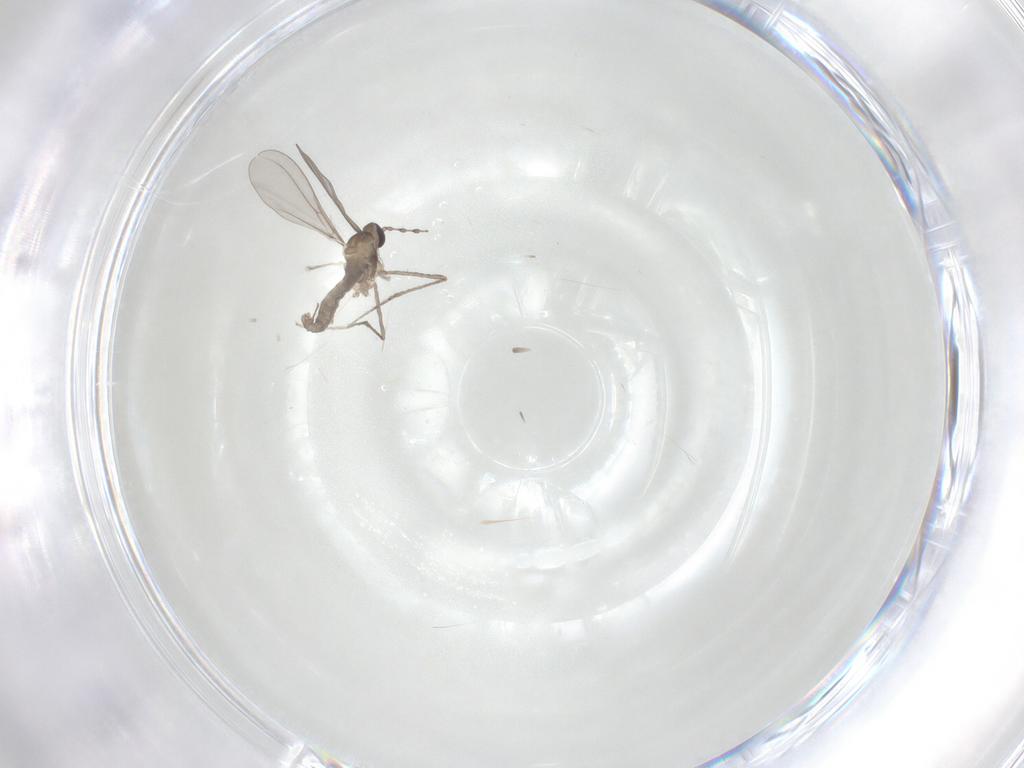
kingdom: Animalia
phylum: Arthropoda
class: Insecta
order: Diptera
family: Cecidomyiidae
